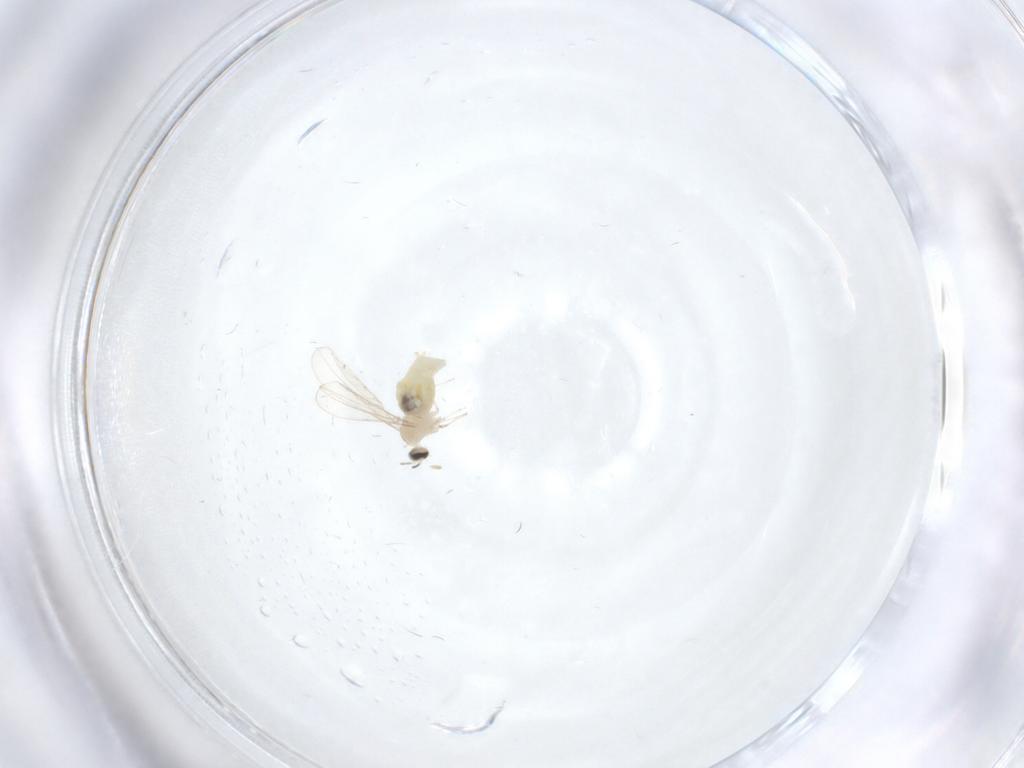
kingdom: Animalia
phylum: Arthropoda
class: Insecta
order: Diptera
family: Cecidomyiidae
